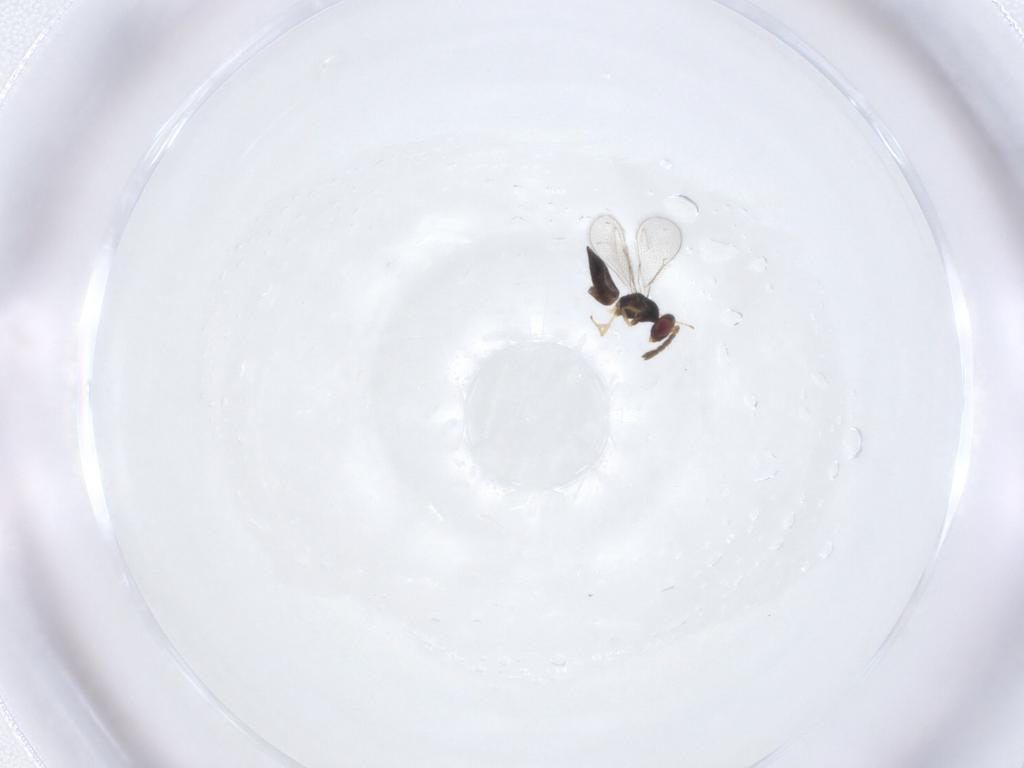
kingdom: Animalia
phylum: Arthropoda
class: Insecta
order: Hymenoptera
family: Eulophidae
